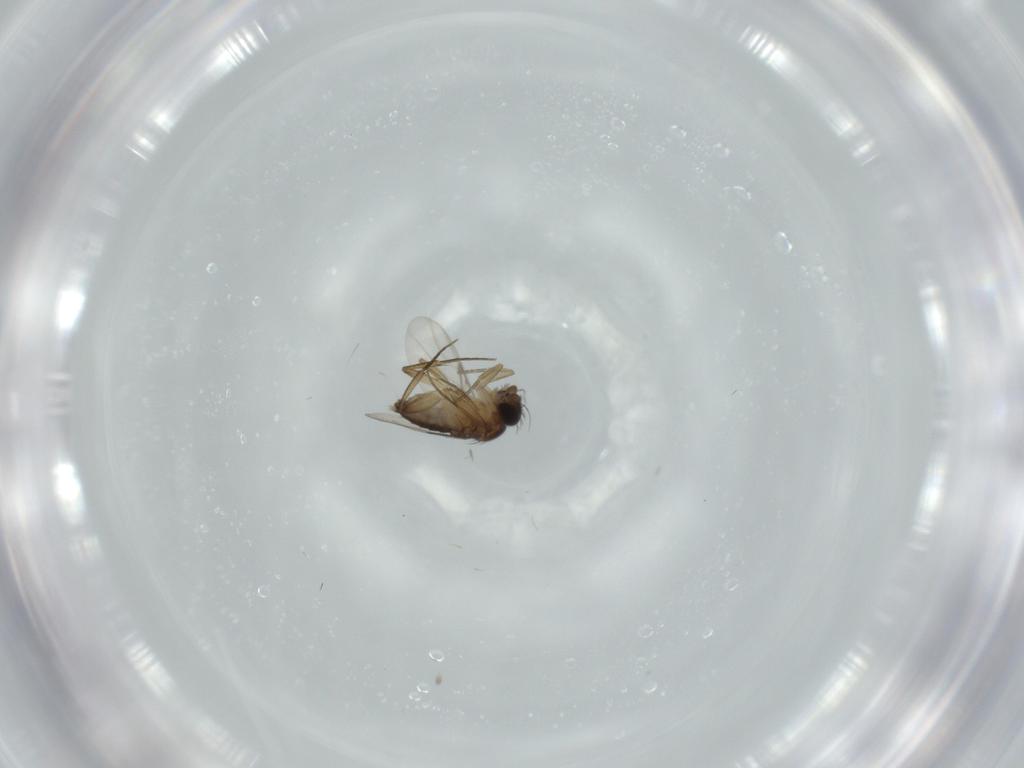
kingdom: Animalia
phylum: Arthropoda
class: Insecta
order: Diptera
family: Phoridae
